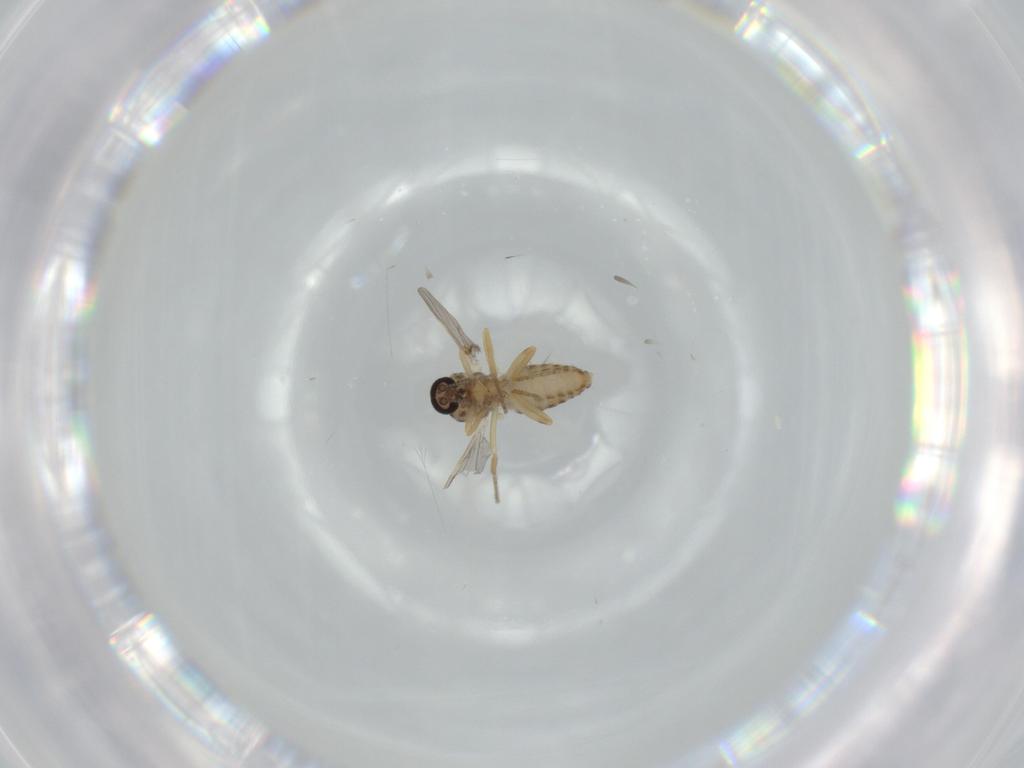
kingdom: Animalia
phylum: Arthropoda
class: Insecta
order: Diptera
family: Ceratopogonidae
